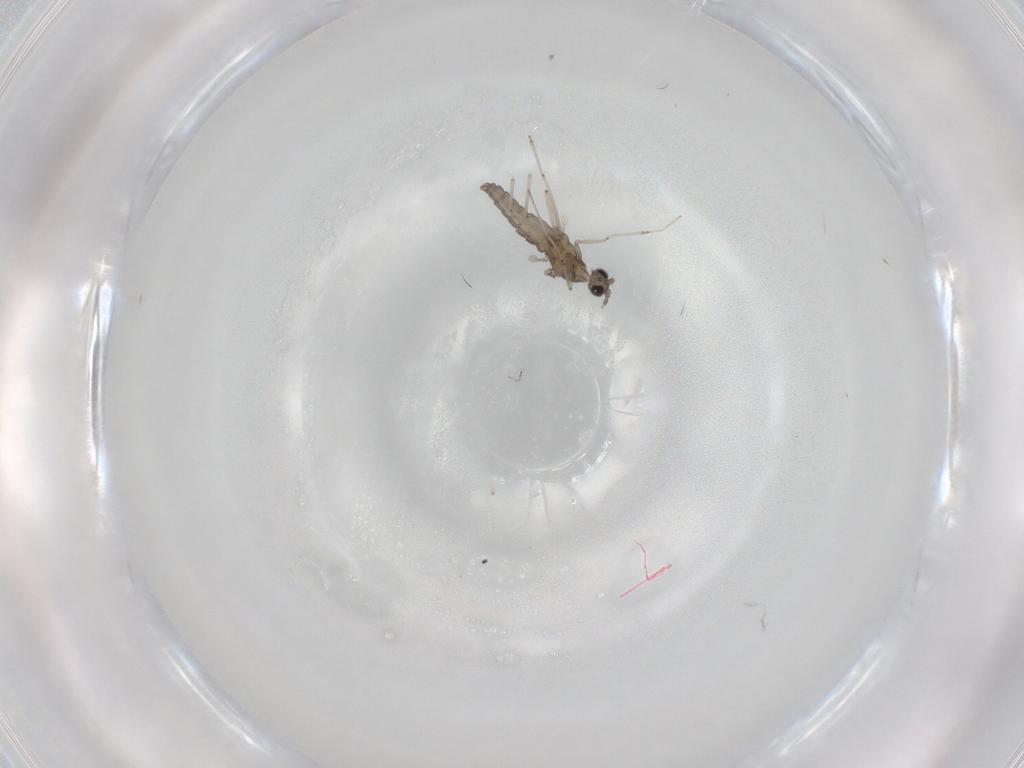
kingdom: Animalia
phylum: Arthropoda
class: Insecta
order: Diptera
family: Cecidomyiidae
